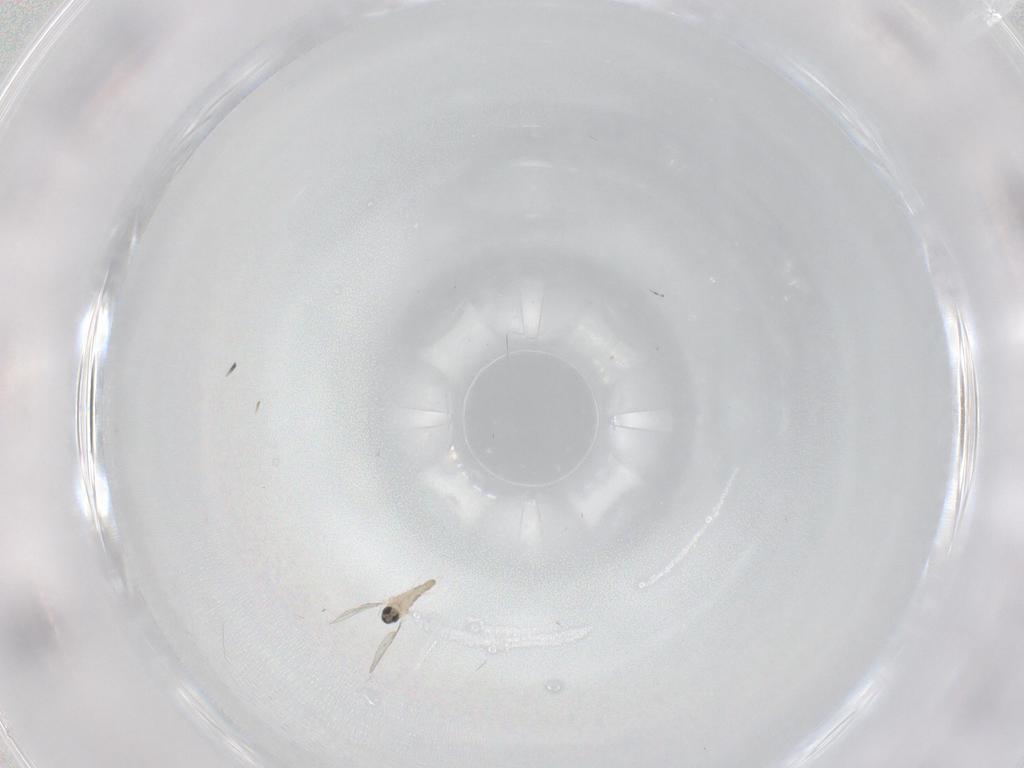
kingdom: Animalia
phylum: Arthropoda
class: Insecta
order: Diptera
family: Cecidomyiidae
